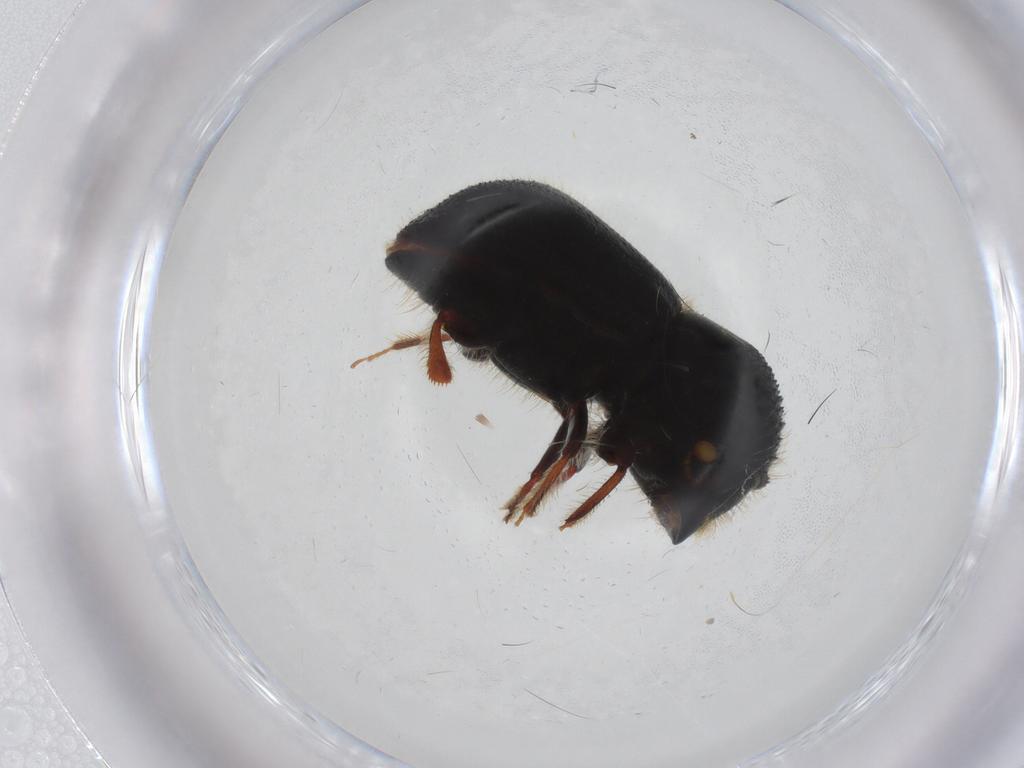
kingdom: Animalia
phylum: Arthropoda
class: Insecta
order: Coleoptera
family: Curculionidae
